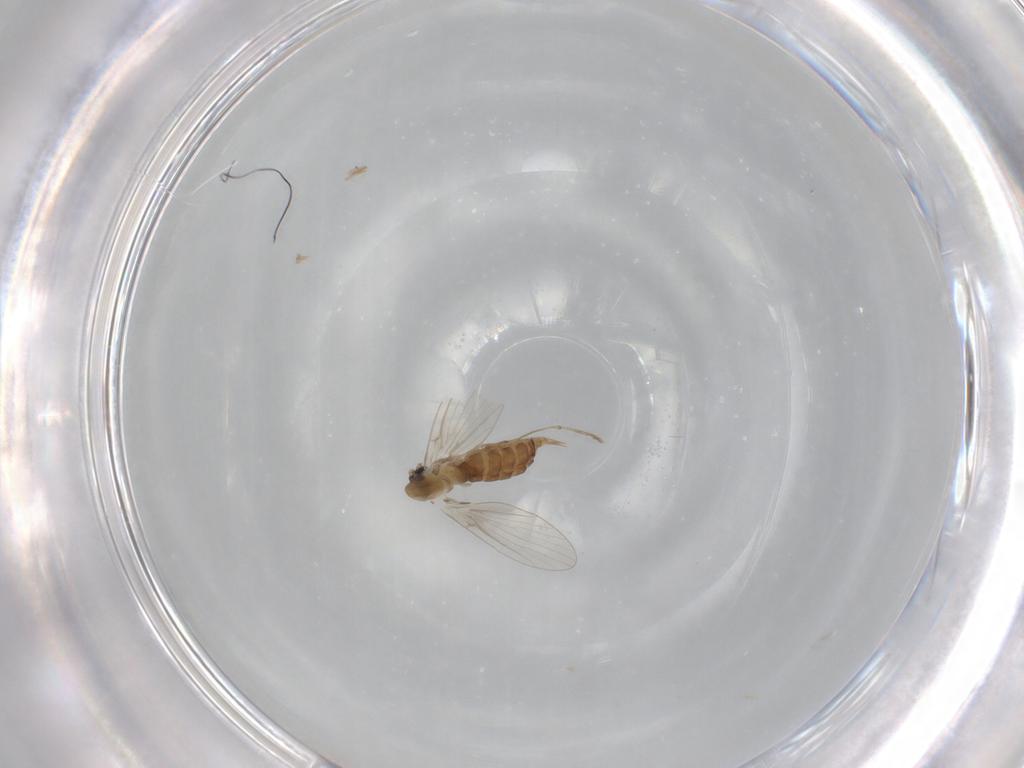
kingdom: Animalia
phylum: Arthropoda
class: Insecta
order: Diptera
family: Psychodidae
